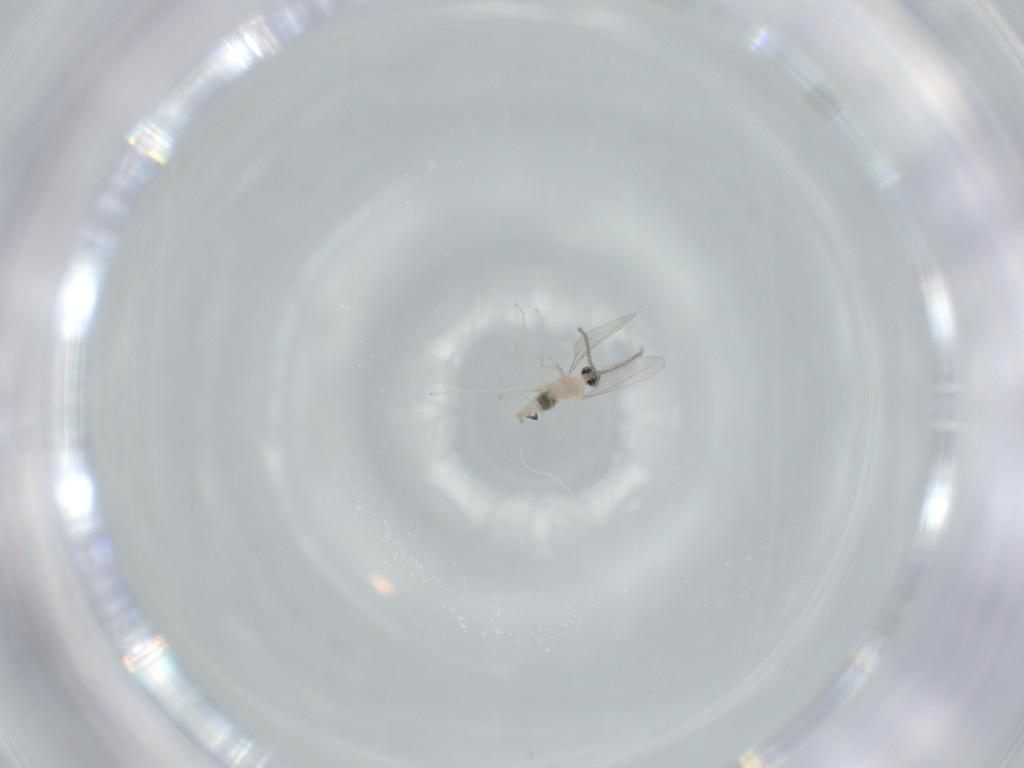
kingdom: Animalia
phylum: Arthropoda
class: Insecta
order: Diptera
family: Cecidomyiidae
